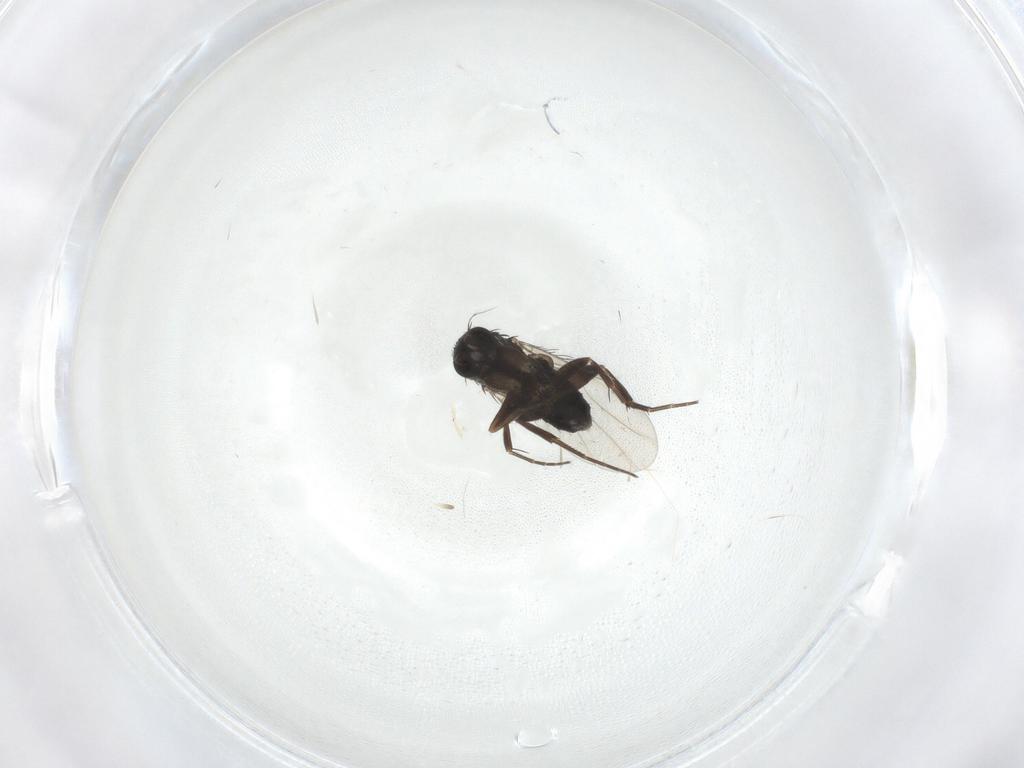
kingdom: Animalia
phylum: Arthropoda
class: Insecta
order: Diptera
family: Phoridae
